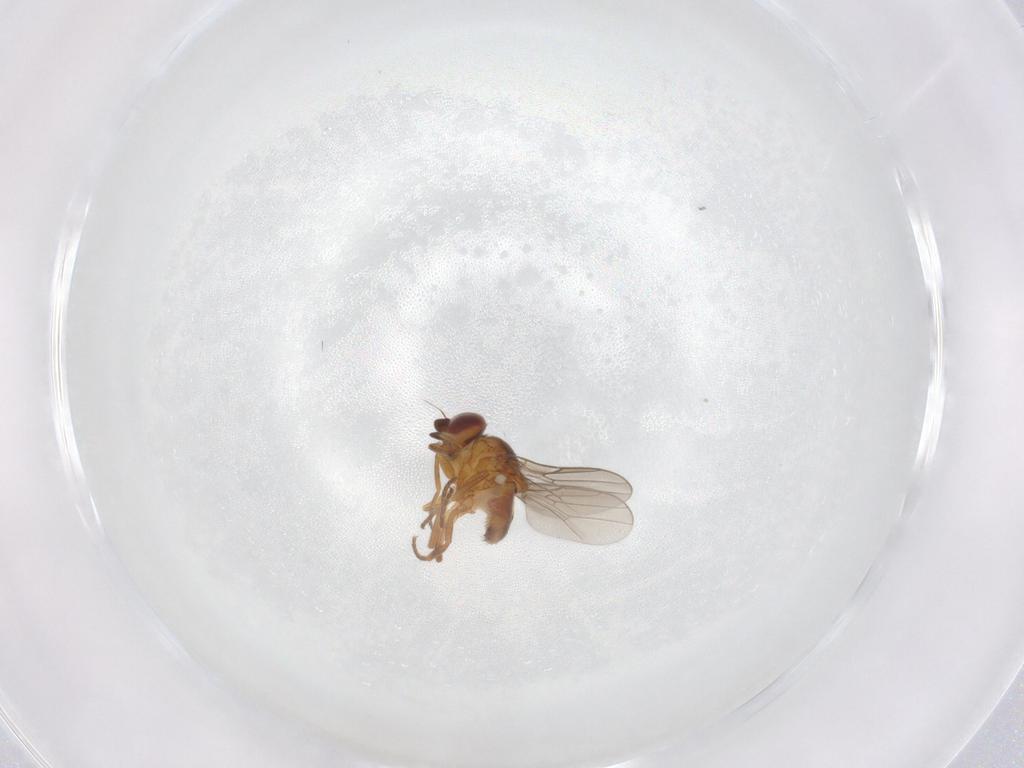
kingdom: Animalia
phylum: Arthropoda
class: Insecta
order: Diptera
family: Chloropidae
